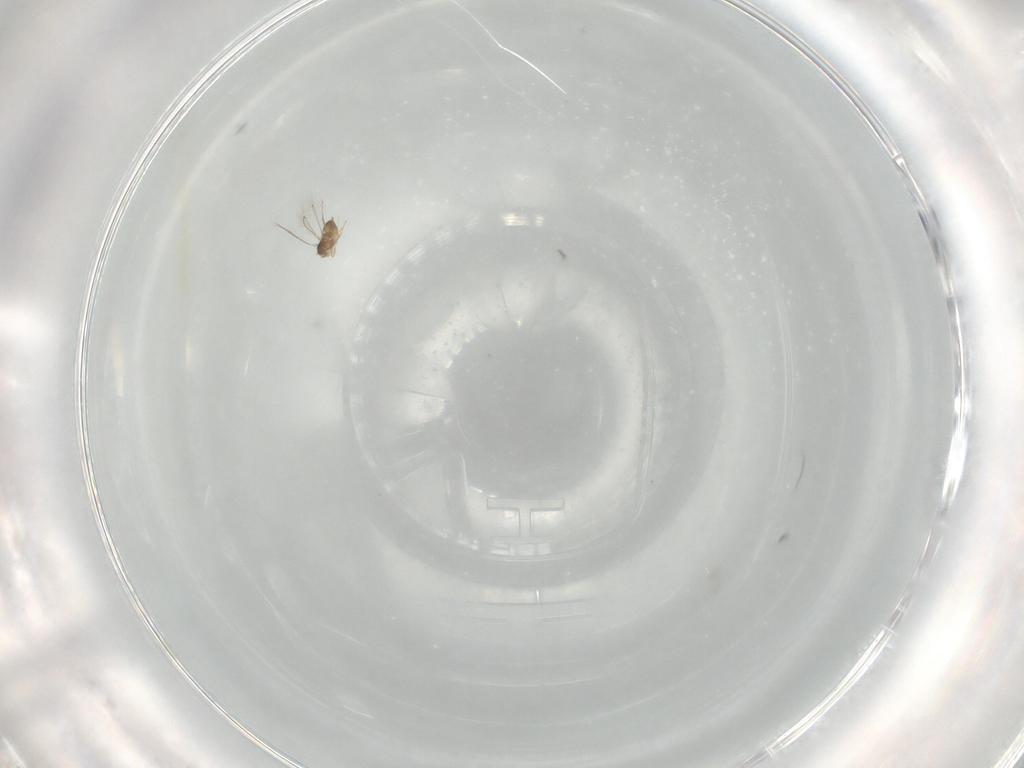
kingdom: Animalia
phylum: Arthropoda
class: Insecta
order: Hymenoptera
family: Formicidae
